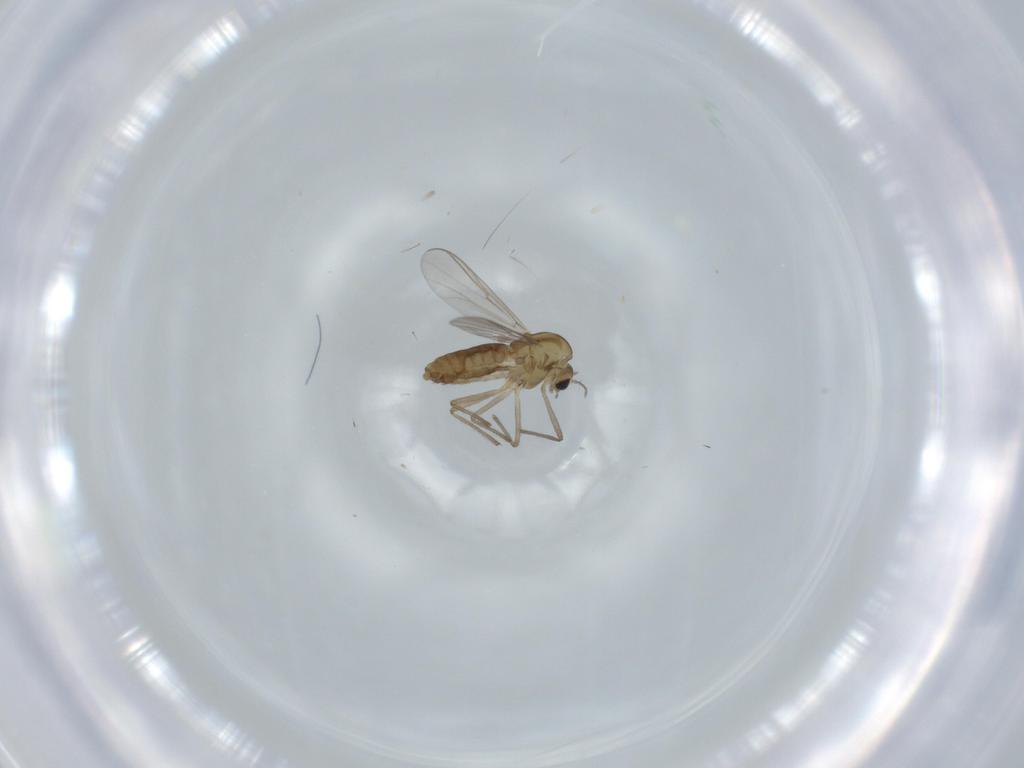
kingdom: Animalia
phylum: Arthropoda
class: Insecta
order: Diptera
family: Chironomidae
